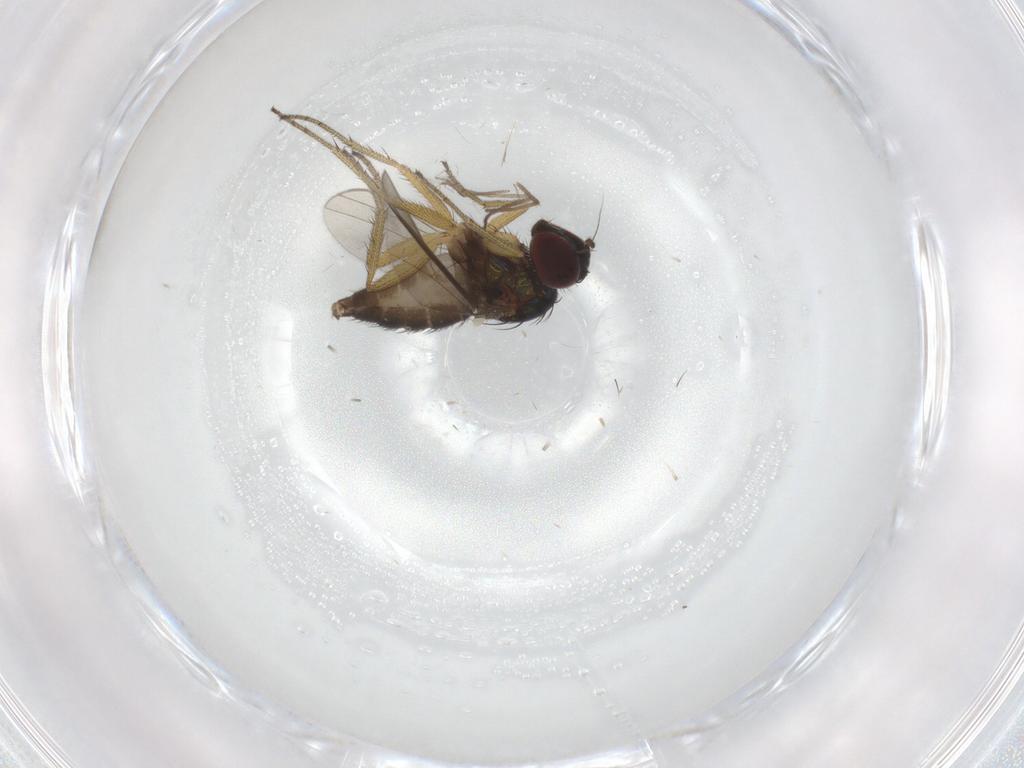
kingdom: Animalia
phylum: Arthropoda
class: Insecta
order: Diptera
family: Chironomidae
